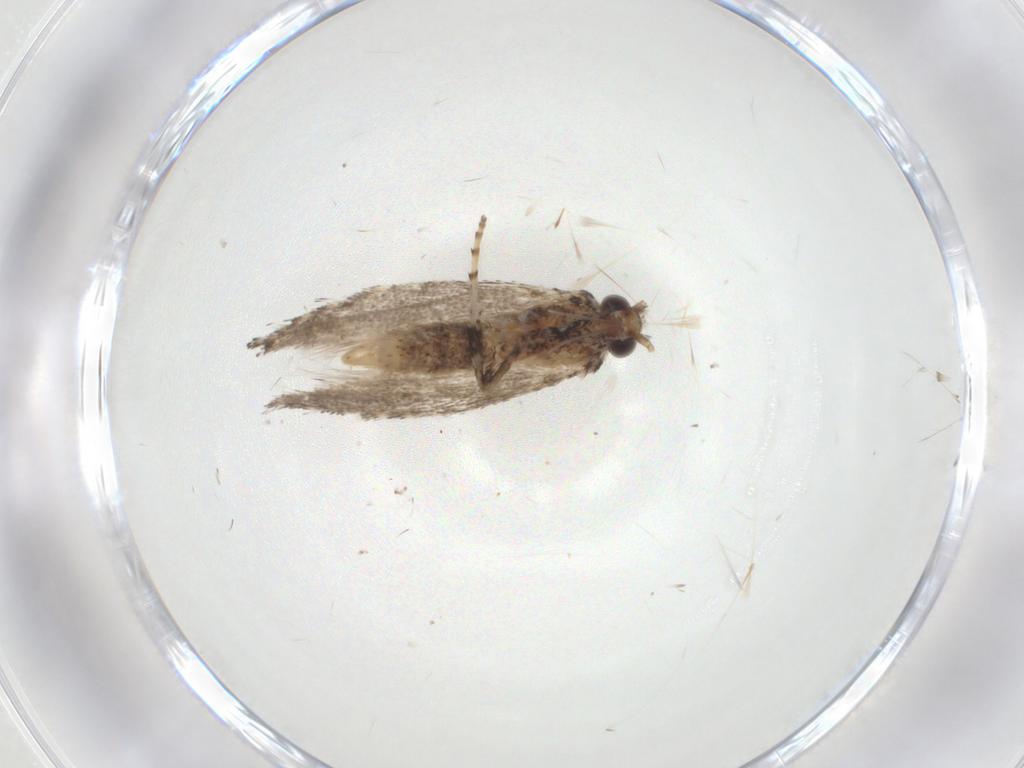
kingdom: Animalia
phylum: Arthropoda
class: Insecta
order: Lepidoptera
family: Gracillariidae
